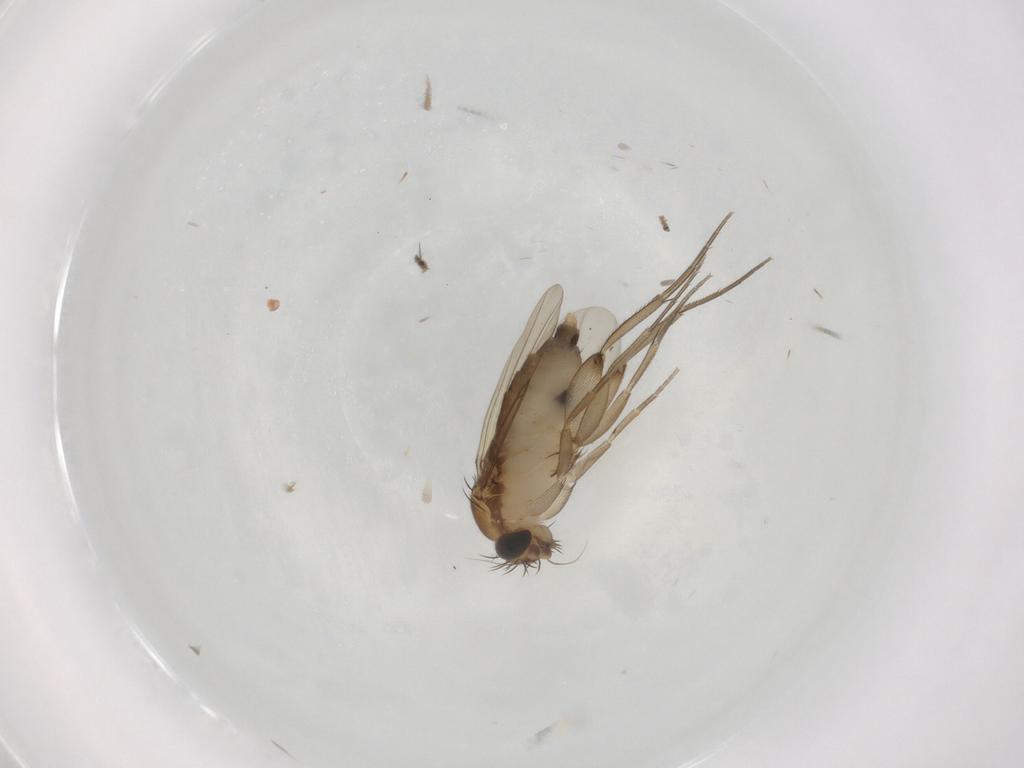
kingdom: Animalia
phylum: Arthropoda
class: Insecta
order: Diptera
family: Phoridae
